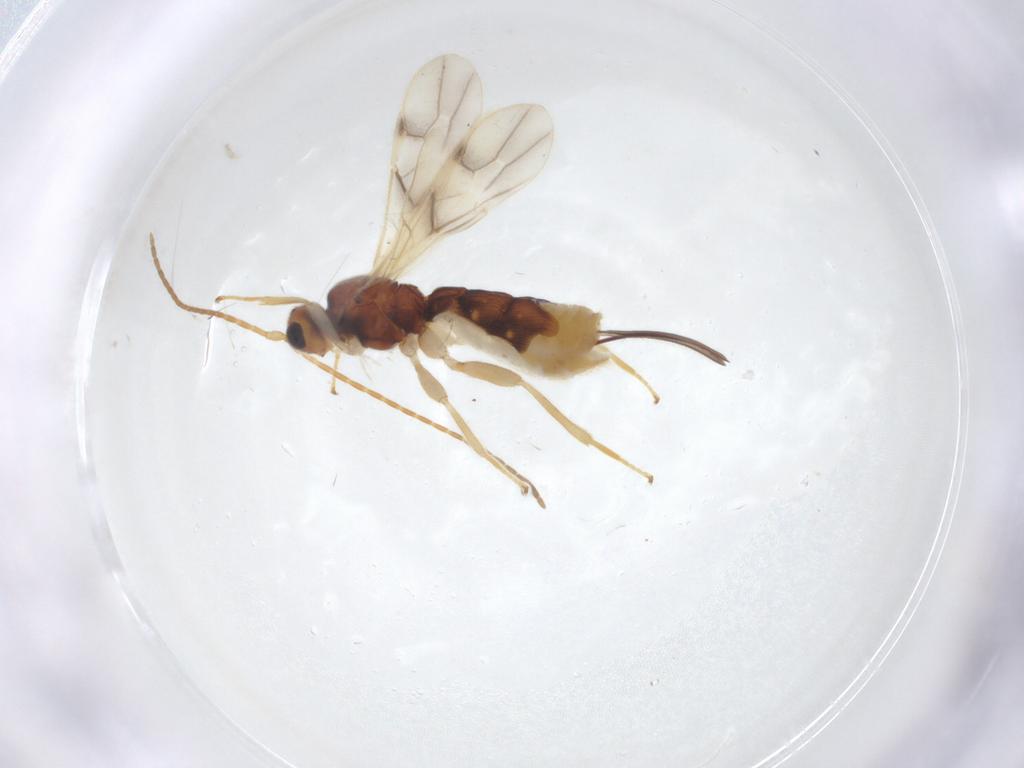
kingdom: Animalia
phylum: Arthropoda
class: Insecta
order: Hymenoptera
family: Braconidae
